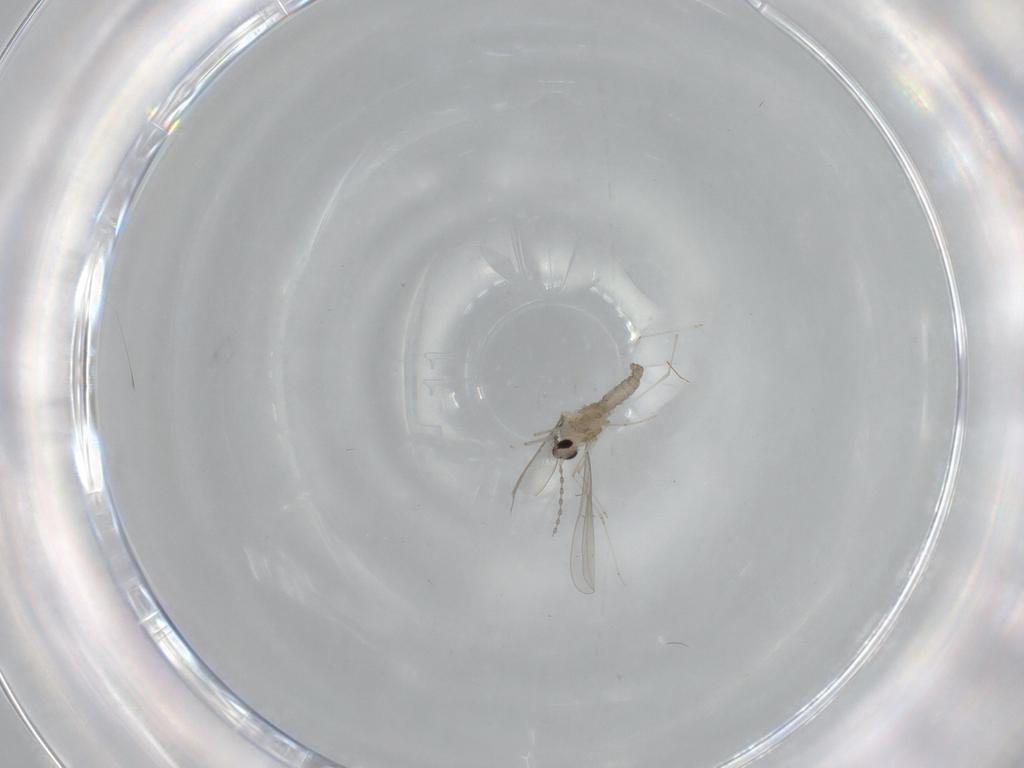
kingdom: Animalia
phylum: Arthropoda
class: Insecta
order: Diptera
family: Cecidomyiidae
